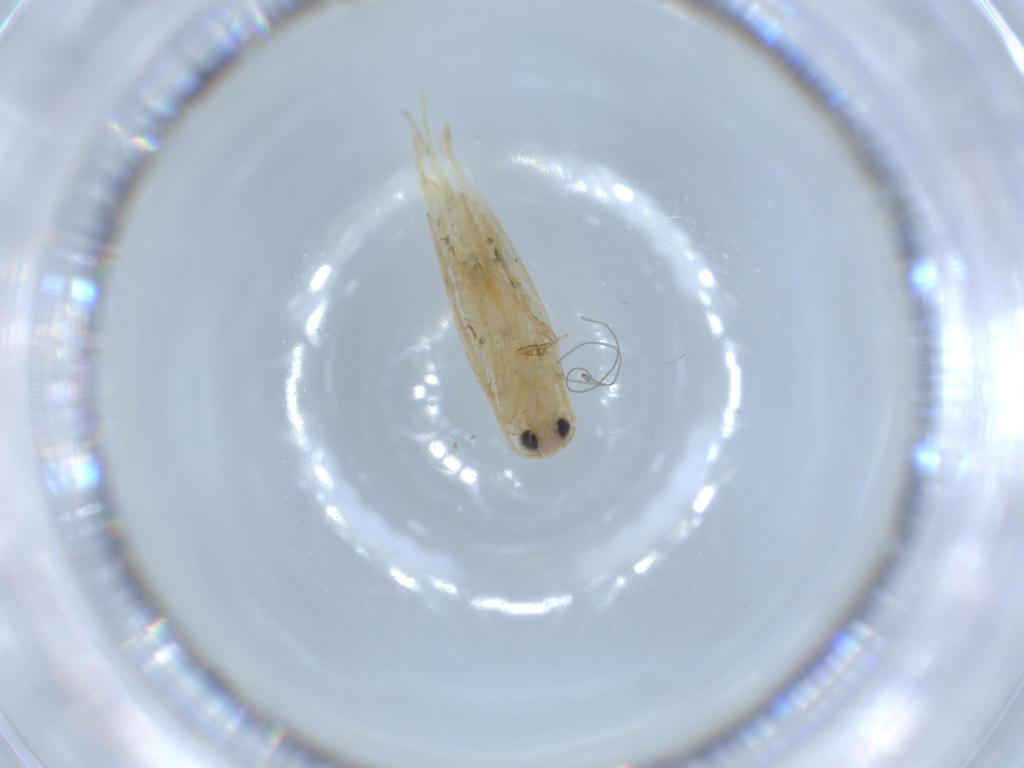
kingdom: Animalia
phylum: Arthropoda
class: Insecta
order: Lepidoptera
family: Tineidae
